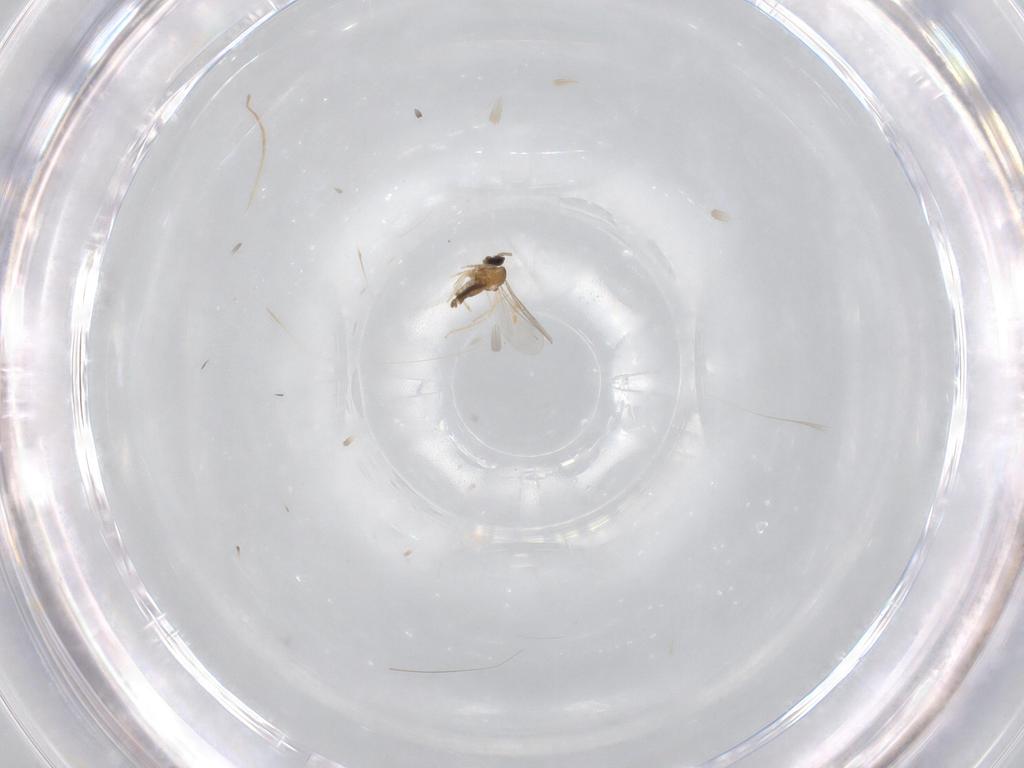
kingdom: Animalia
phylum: Arthropoda
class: Insecta
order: Diptera
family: Cecidomyiidae
